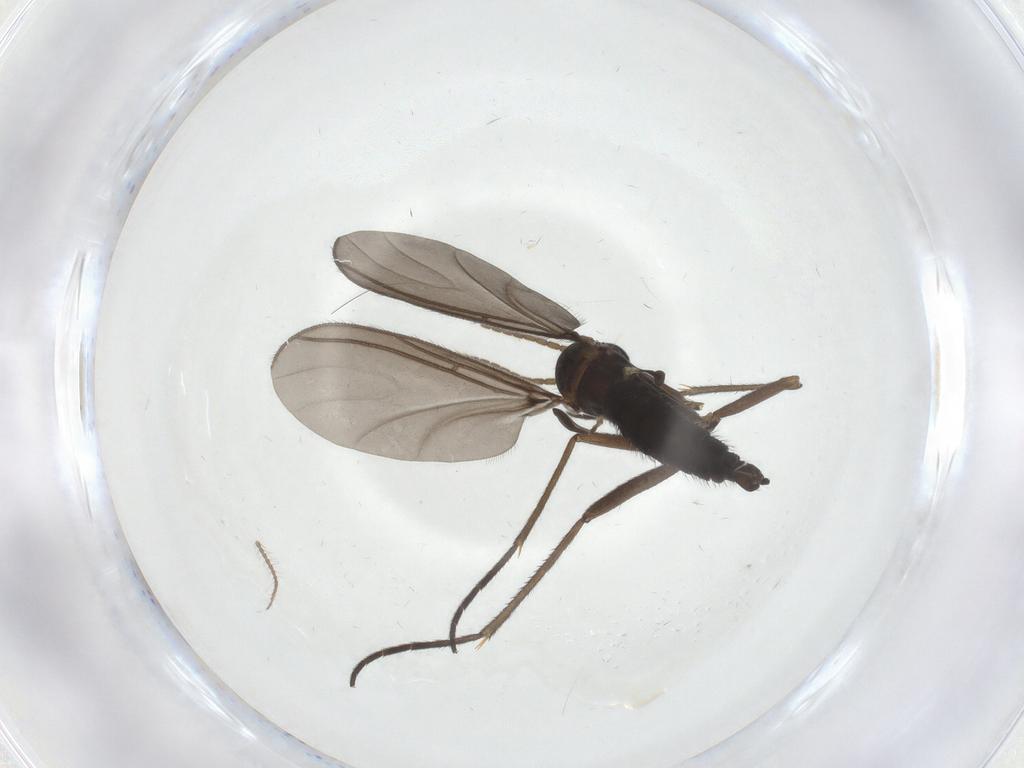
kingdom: Animalia
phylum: Arthropoda
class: Insecta
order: Diptera
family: Limoniidae
